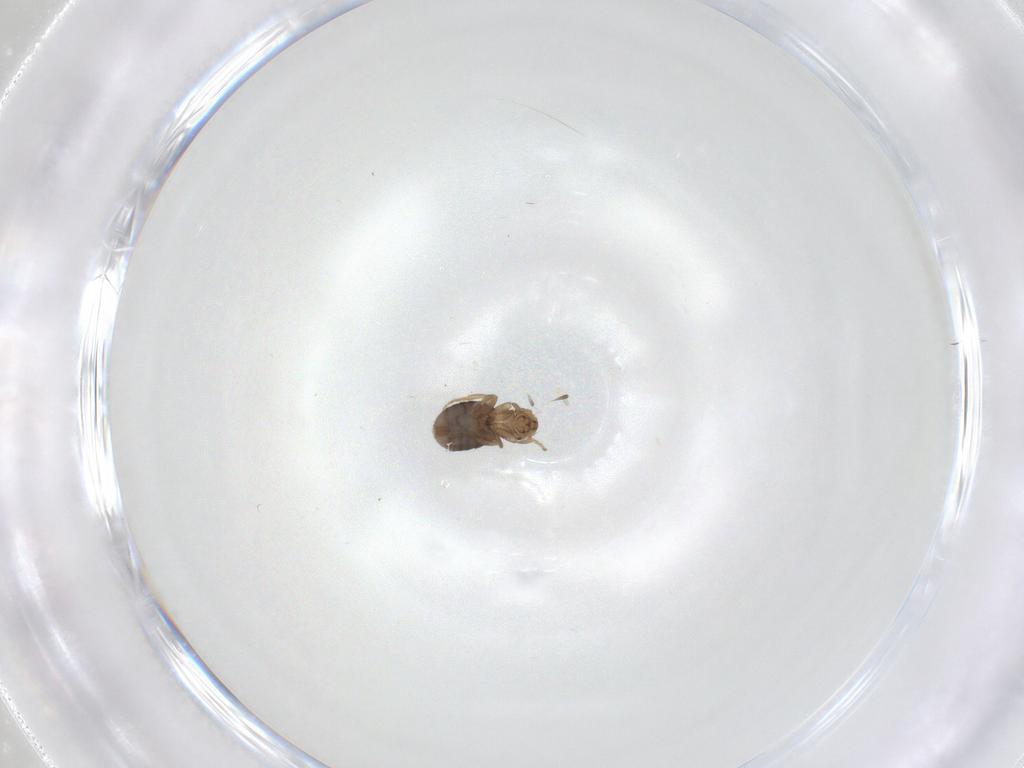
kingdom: Animalia
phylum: Arthropoda
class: Insecta
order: Diptera
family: Ceratopogonidae
